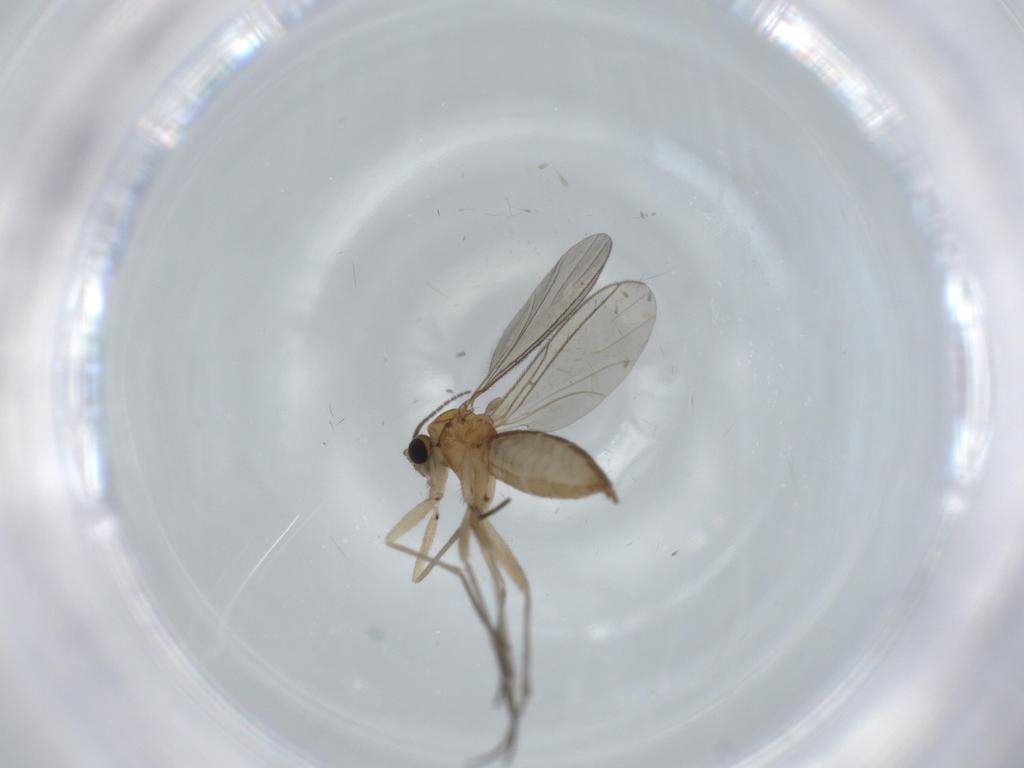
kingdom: Animalia
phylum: Arthropoda
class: Insecta
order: Diptera
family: Sciaridae
